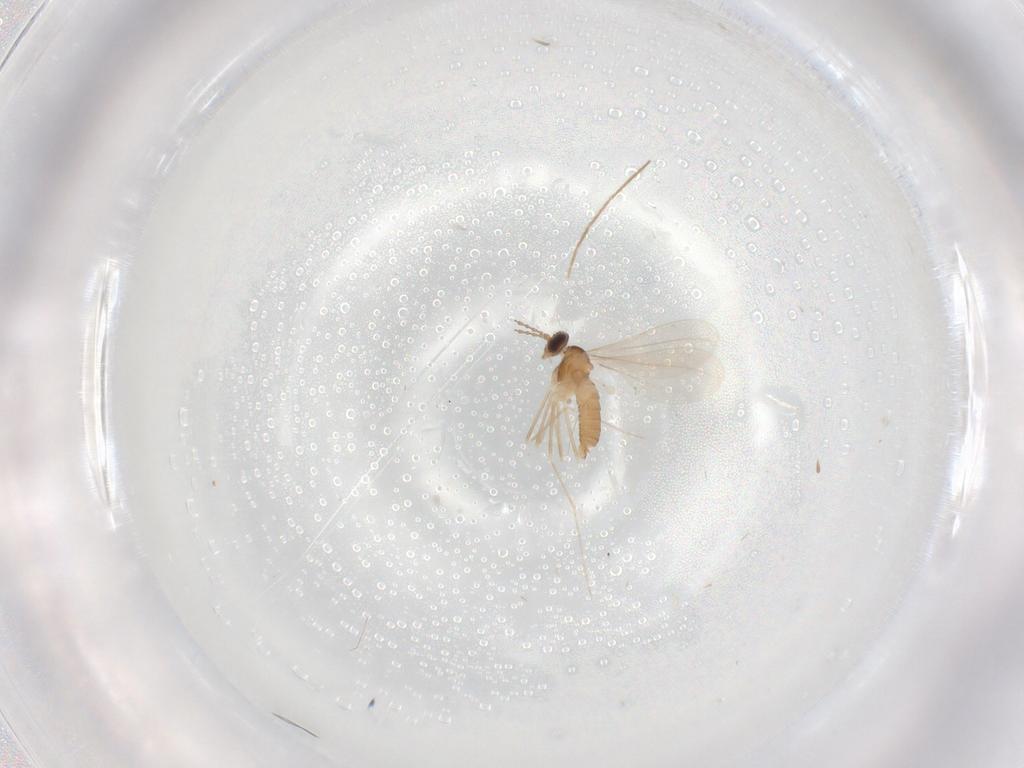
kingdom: Animalia
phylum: Arthropoda
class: Insecta
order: Diptera
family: Cecidomyiidae
